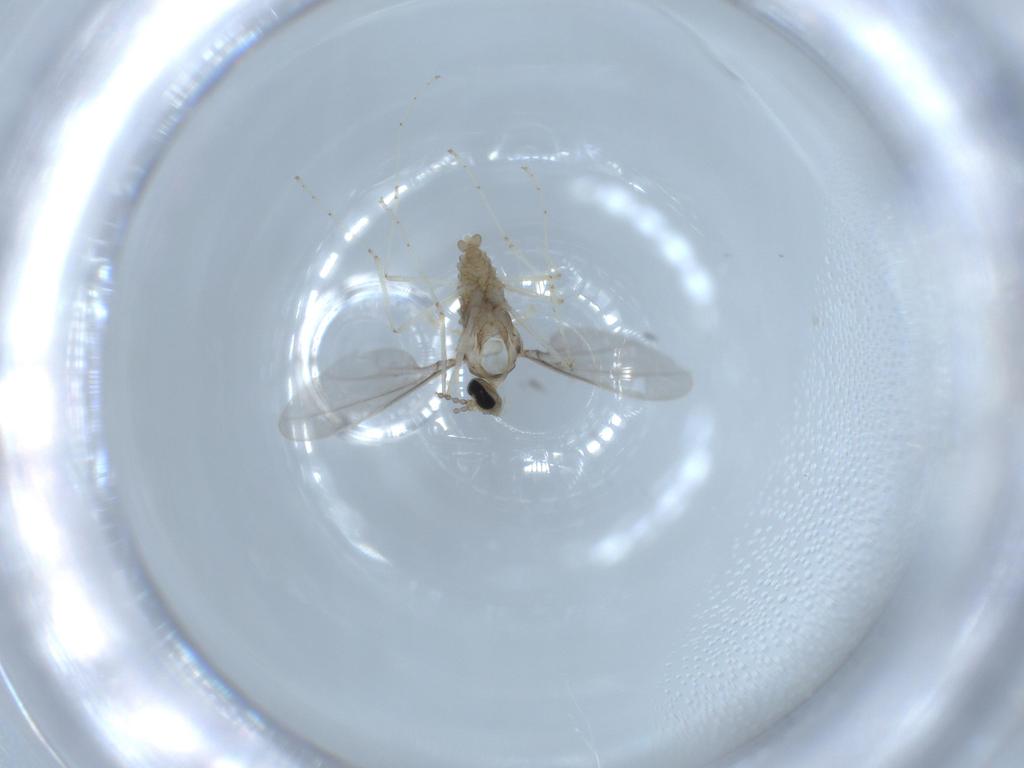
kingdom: Animalia
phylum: Arthropoda
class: Insecta
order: Diptera
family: Cecidomyiidae
